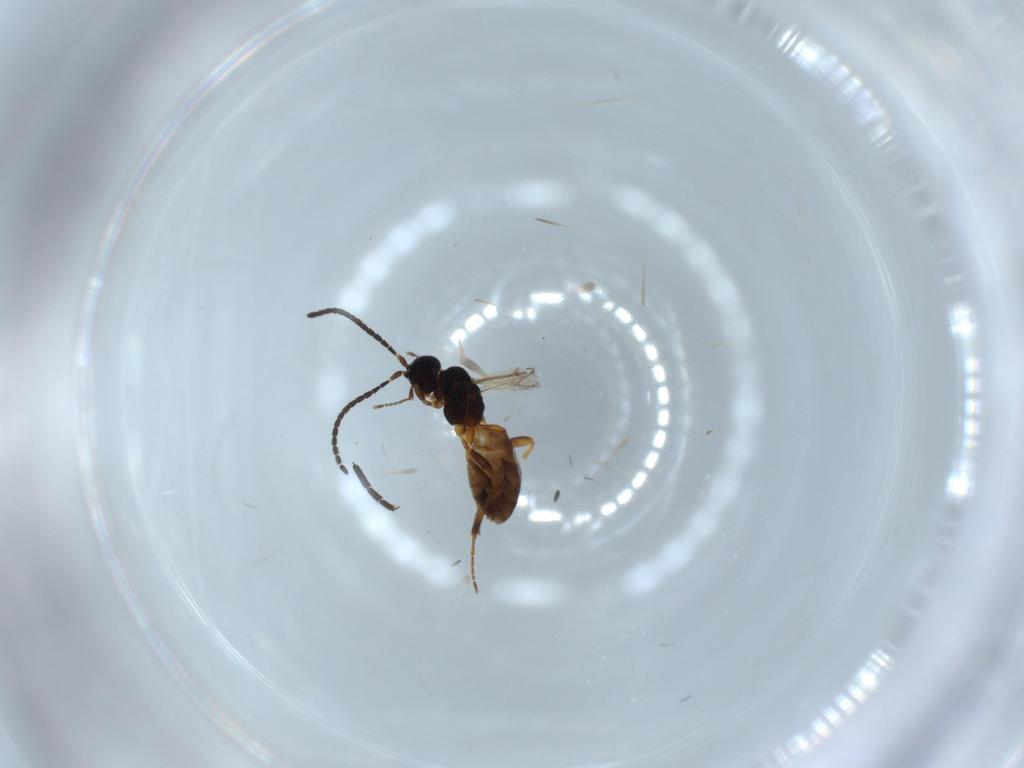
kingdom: Animalia
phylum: Arthropoda
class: Insecta
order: Hymenoptera
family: Braconidae
